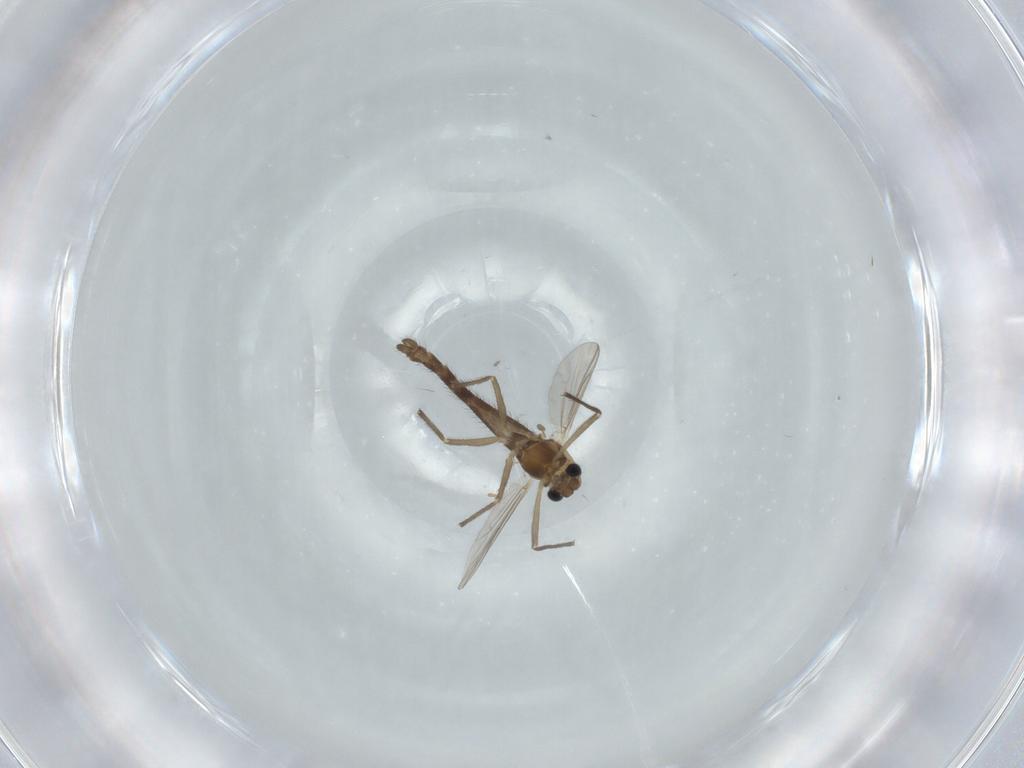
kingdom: Animalia
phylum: Arthropoda
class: Insecta
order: Diptera
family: Chironomidae
